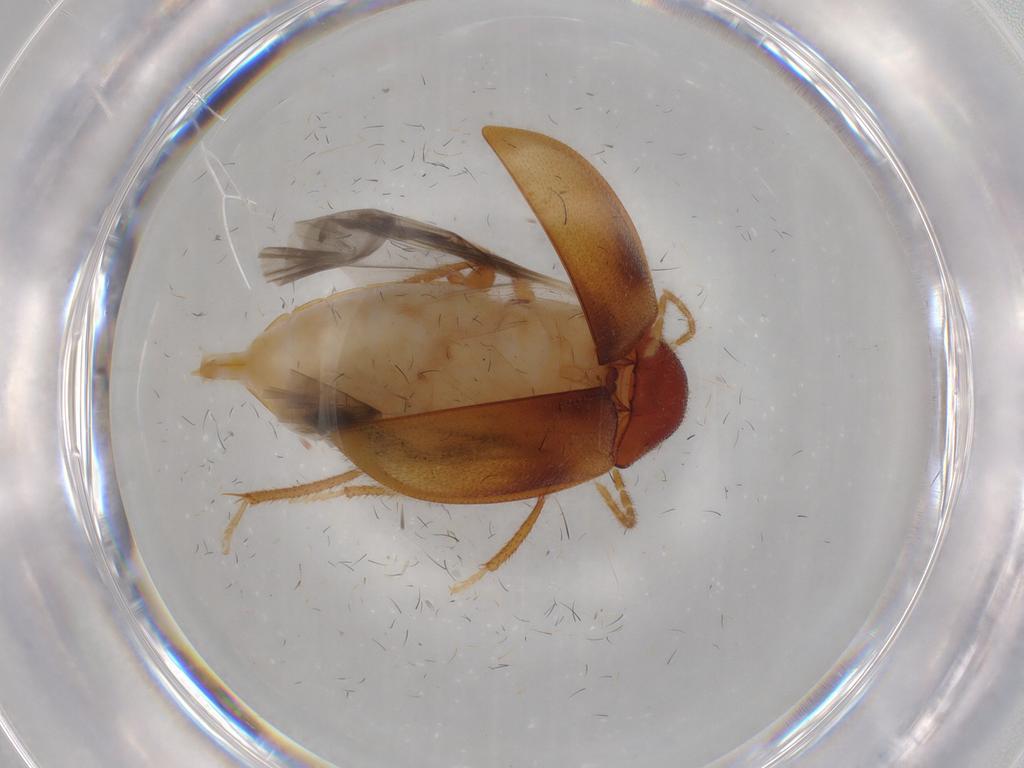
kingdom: Animalia
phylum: Arthropoda
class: Insecta
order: Coleoptera
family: Ptilodactylidae
